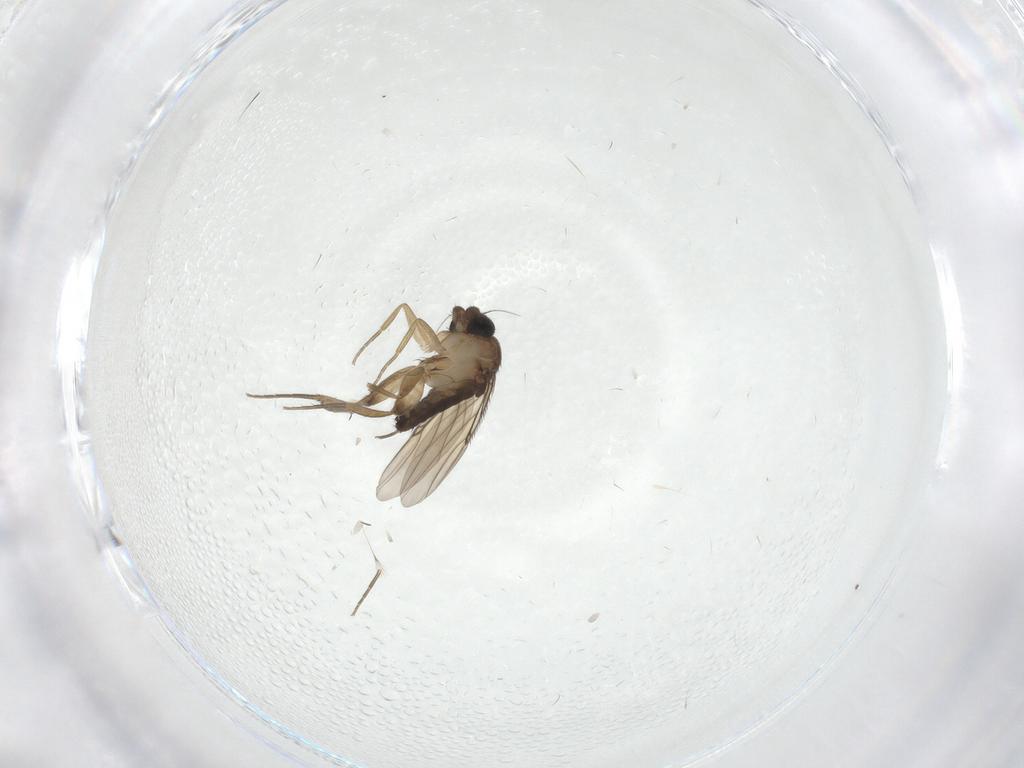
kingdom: Animalia
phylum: Arthropoda
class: Insecta
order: Diptera
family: Phoridae
